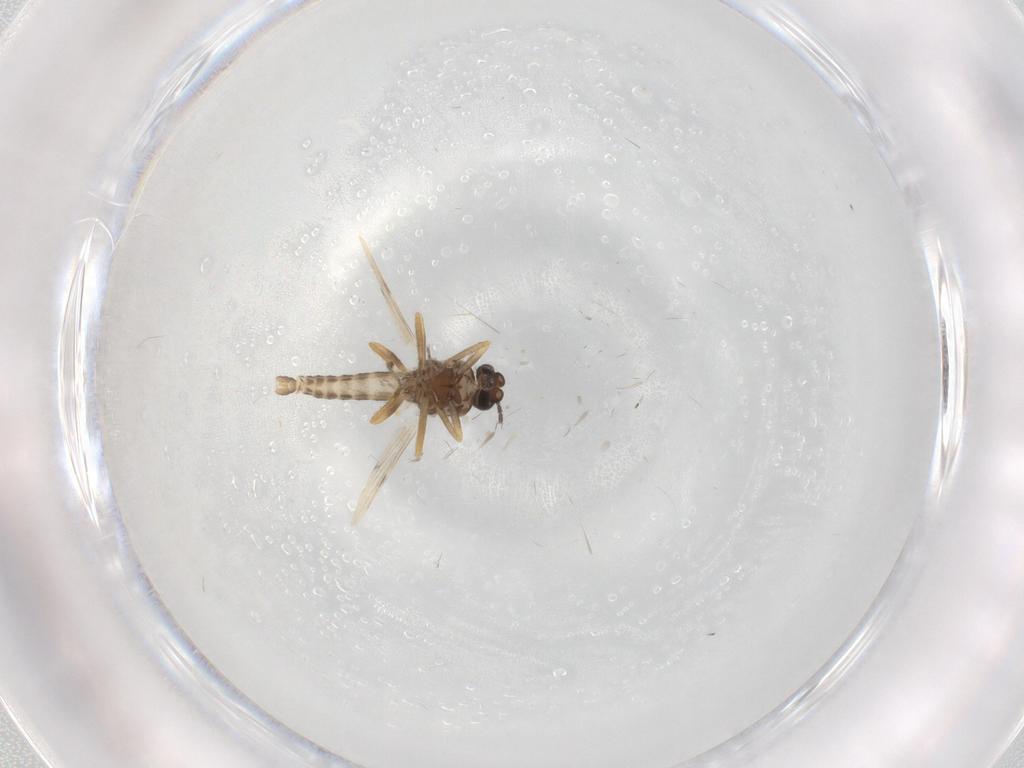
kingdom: Animalia
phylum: Arthropoda
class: Insecta
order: Diptera
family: Sciaridae
